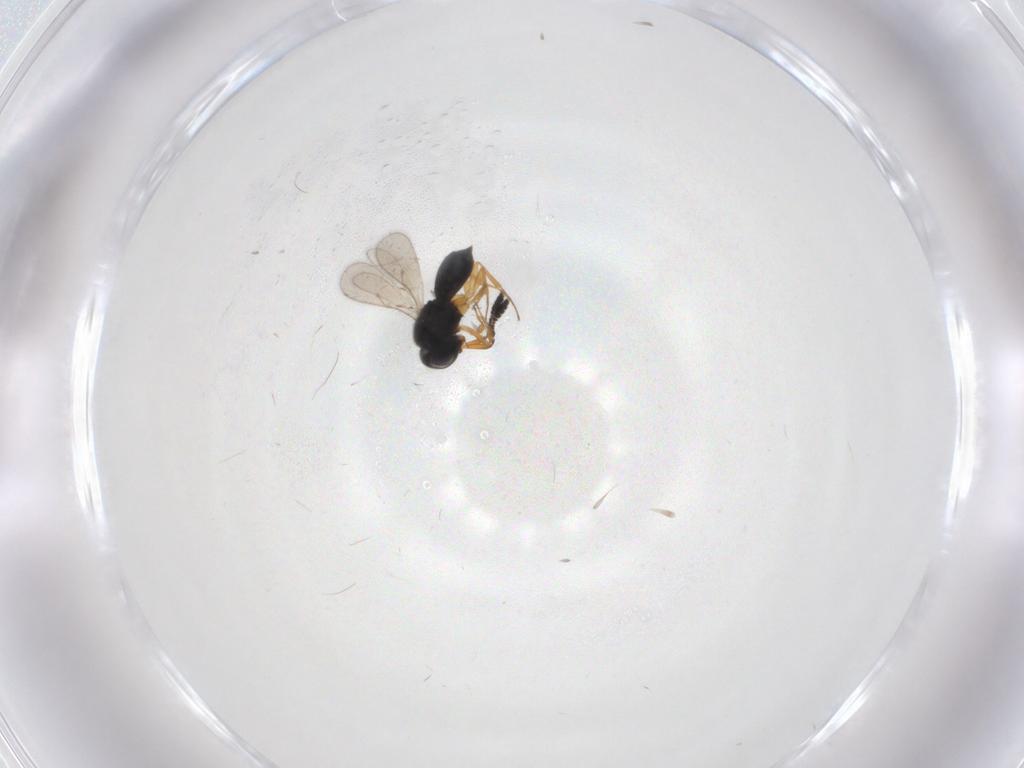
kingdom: Animalia
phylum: Arthropoda
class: Insecta
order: Hymenoptera
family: Scelionidae
